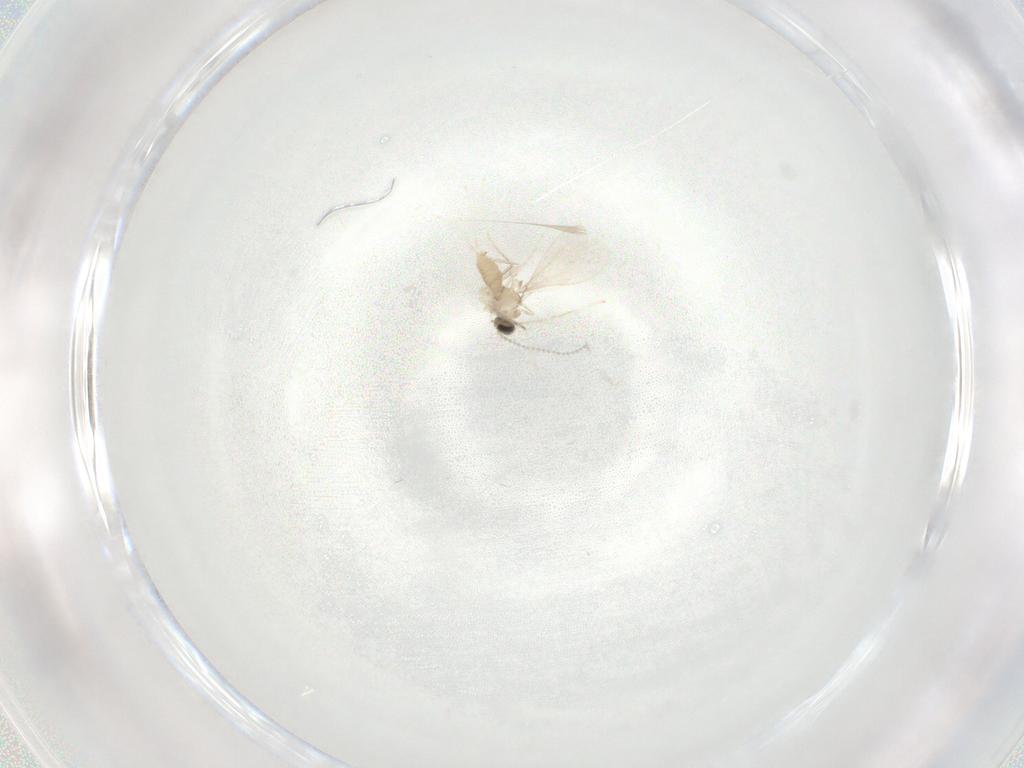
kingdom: Animalia
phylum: Arthropoda
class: Insecta
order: Diptera
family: Cecidomyiidae
